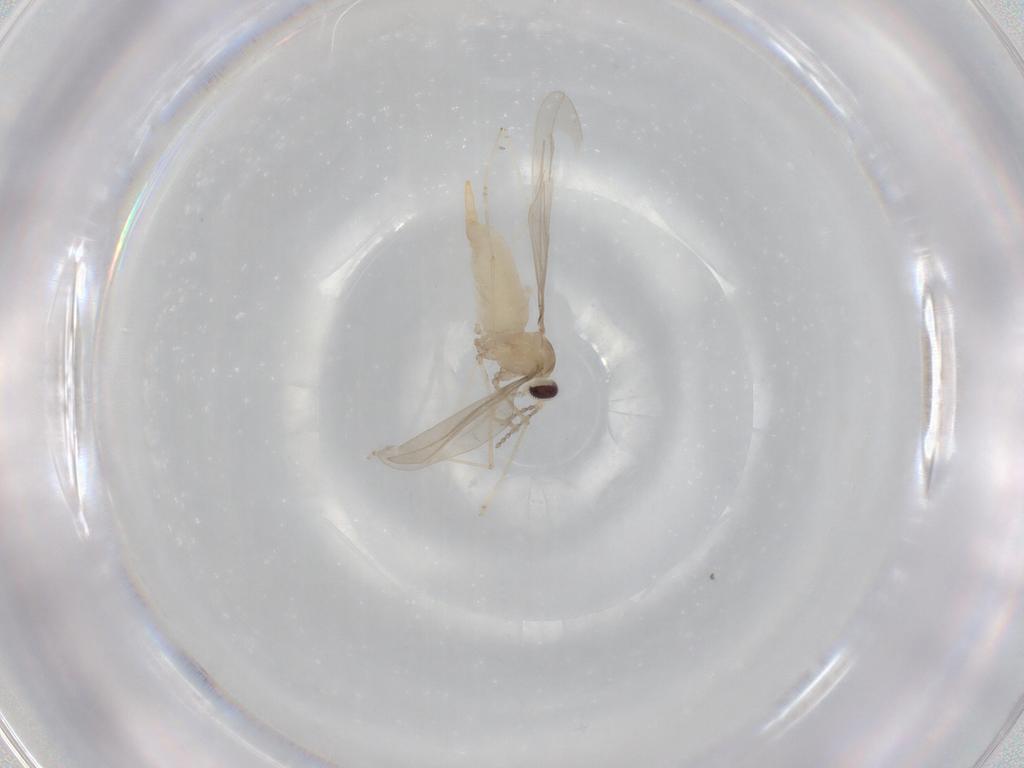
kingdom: Animalia
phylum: Arthropoda
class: Insecta
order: Diptera
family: Cecidomyiidae
